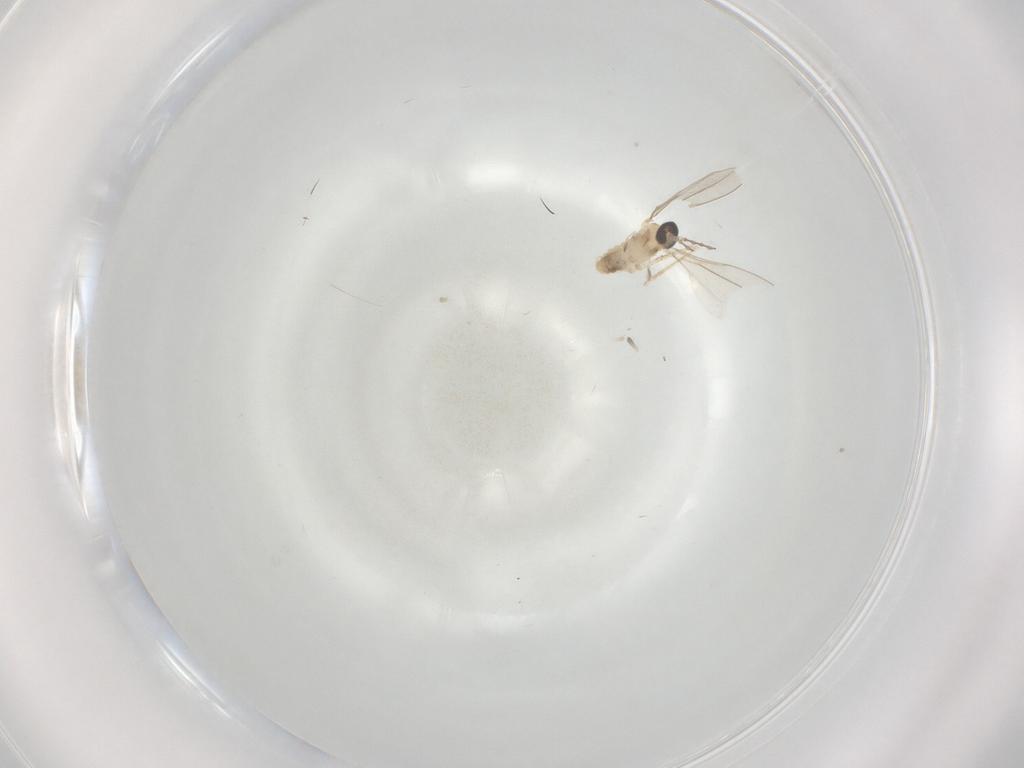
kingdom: Animalia
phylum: Arthropoda
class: Insecta
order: Diptera
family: Cecidomyiidae
